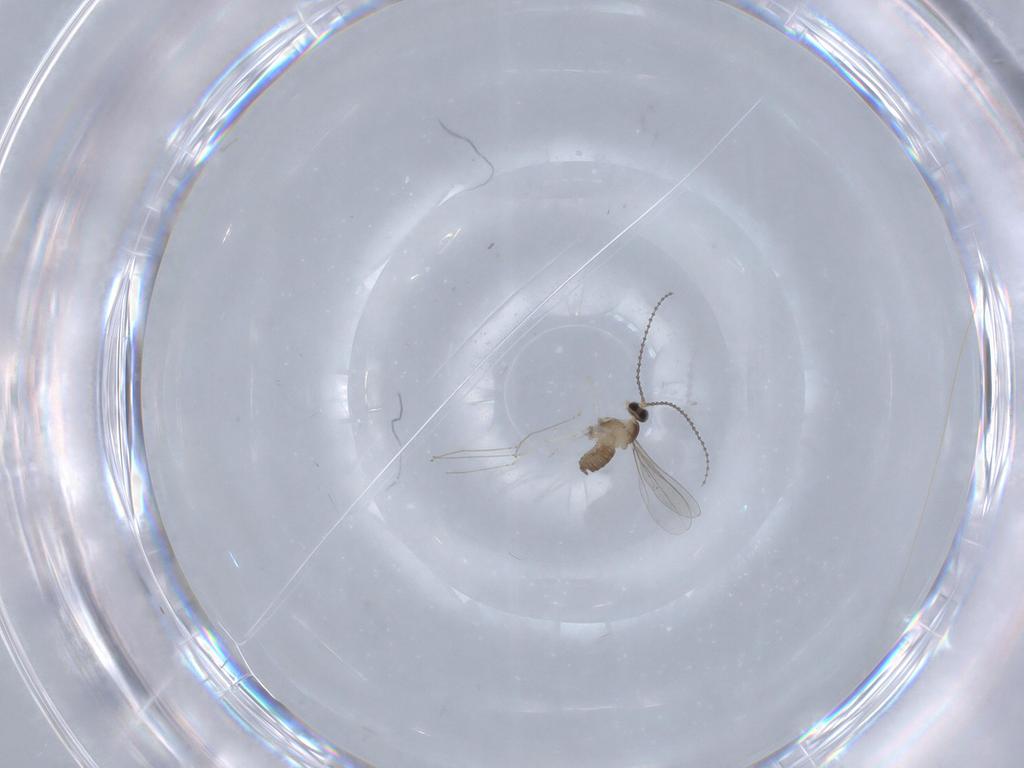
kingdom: Animalia
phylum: Arthropoda
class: Insecta
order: Diptera
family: Cecidomyiidae
